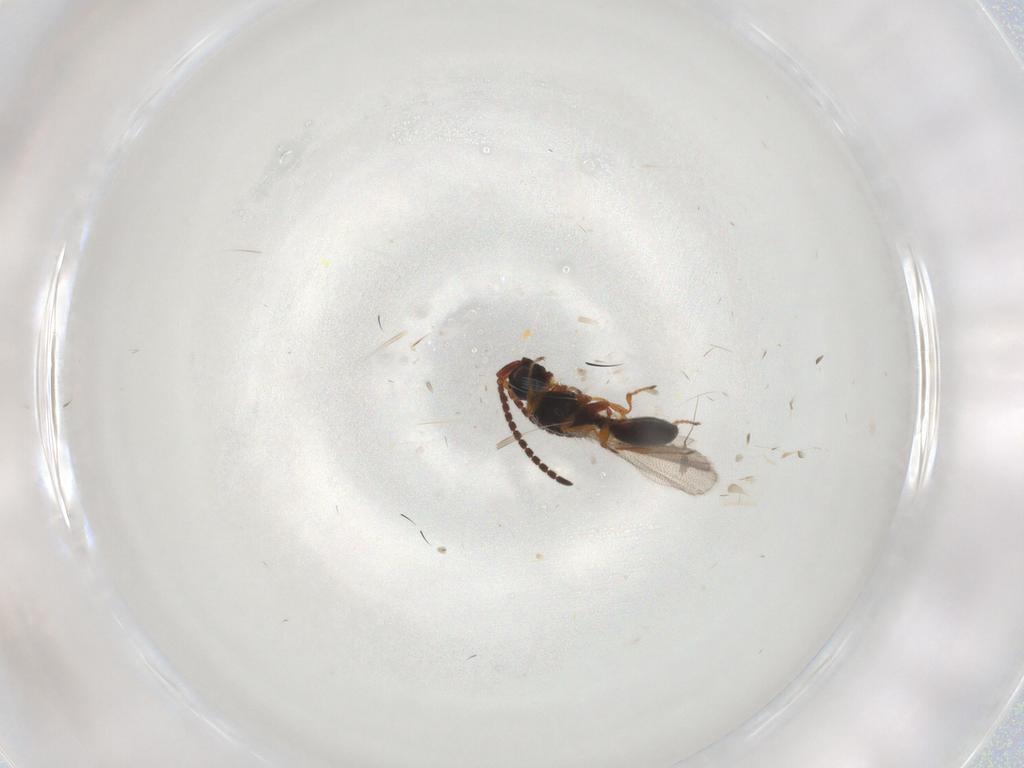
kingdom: Animalia
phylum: Arthropoda
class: Insecta
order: Hymenoptera
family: Formicidae
